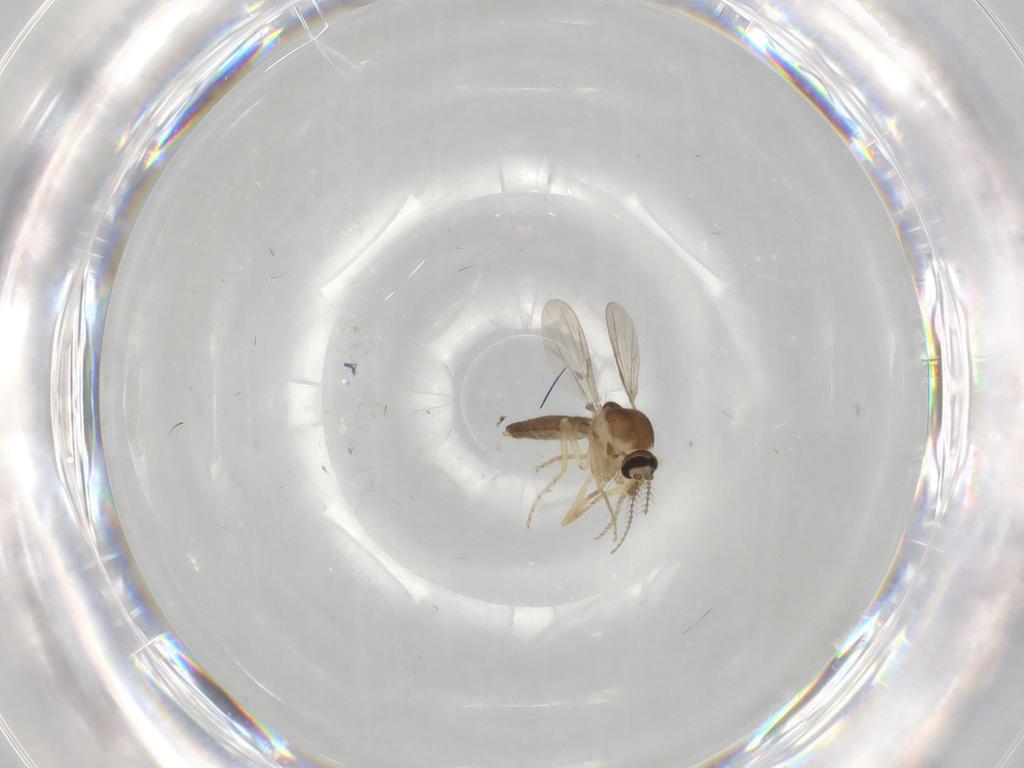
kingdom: Animalia
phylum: Arthropoda
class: Insecta
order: Diptera
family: Ceratopogonidae
